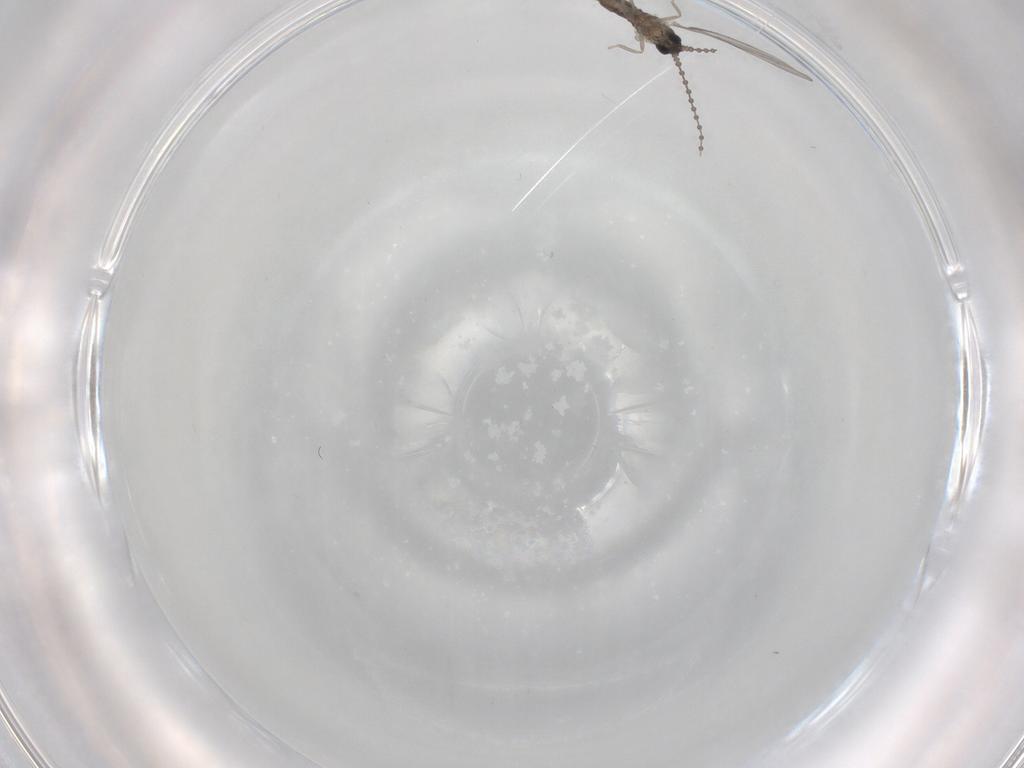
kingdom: Animalia
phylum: Arthropoda
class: Insecta
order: Diptera
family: Cecidomyiidae
